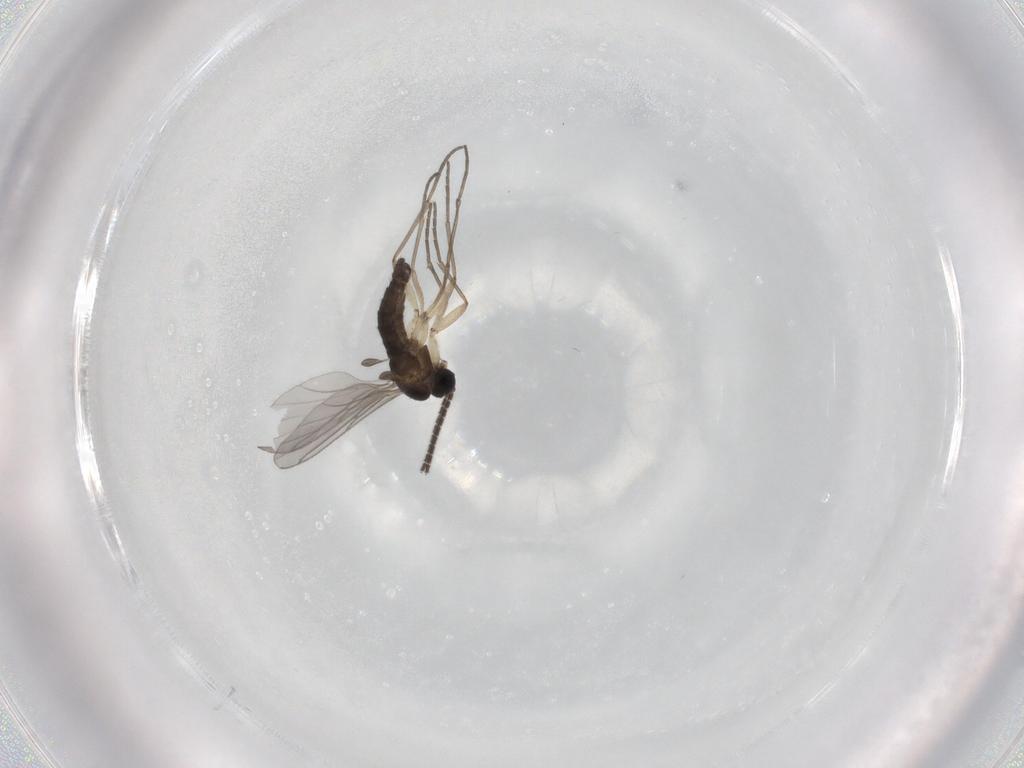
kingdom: Animalia
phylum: Arthropoda
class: Insecta
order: Diptera
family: Sciaridae
